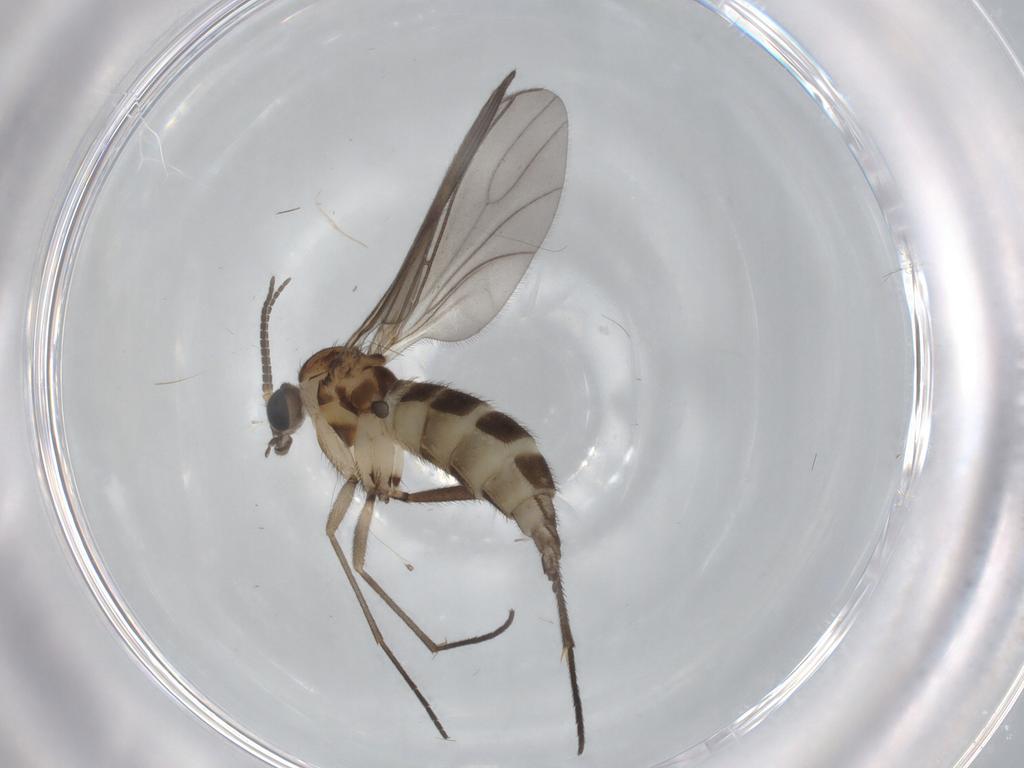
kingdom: Animalia
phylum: Arthropoda
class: Insecta
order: Diptera
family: Sciaridae
